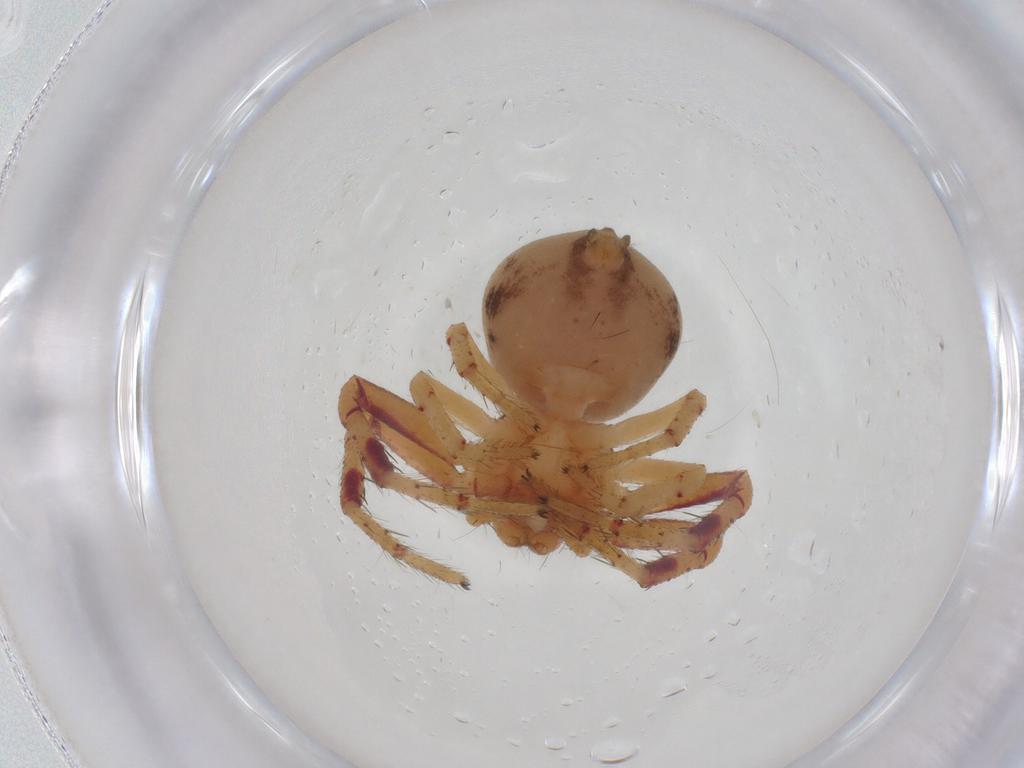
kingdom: Animalia
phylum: Arthropoda
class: Arachnida
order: Araneae
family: Thomisidae
